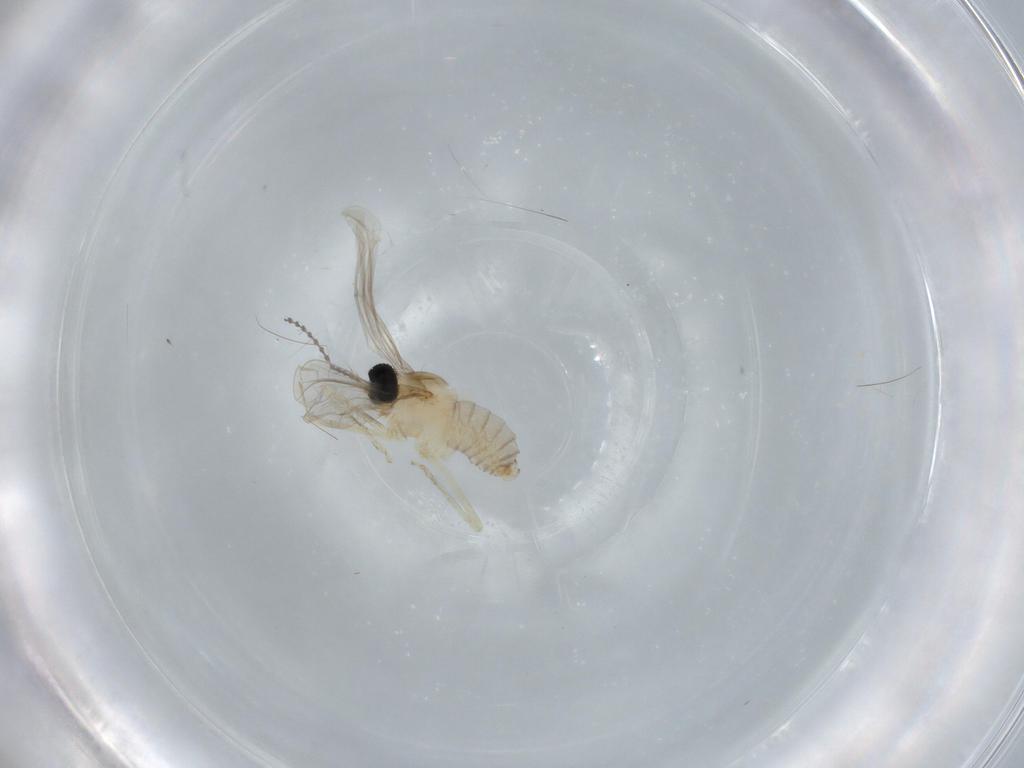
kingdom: Animalia
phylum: Arthropoda
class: Insecta
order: Diptera
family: Cecidomyiidae
